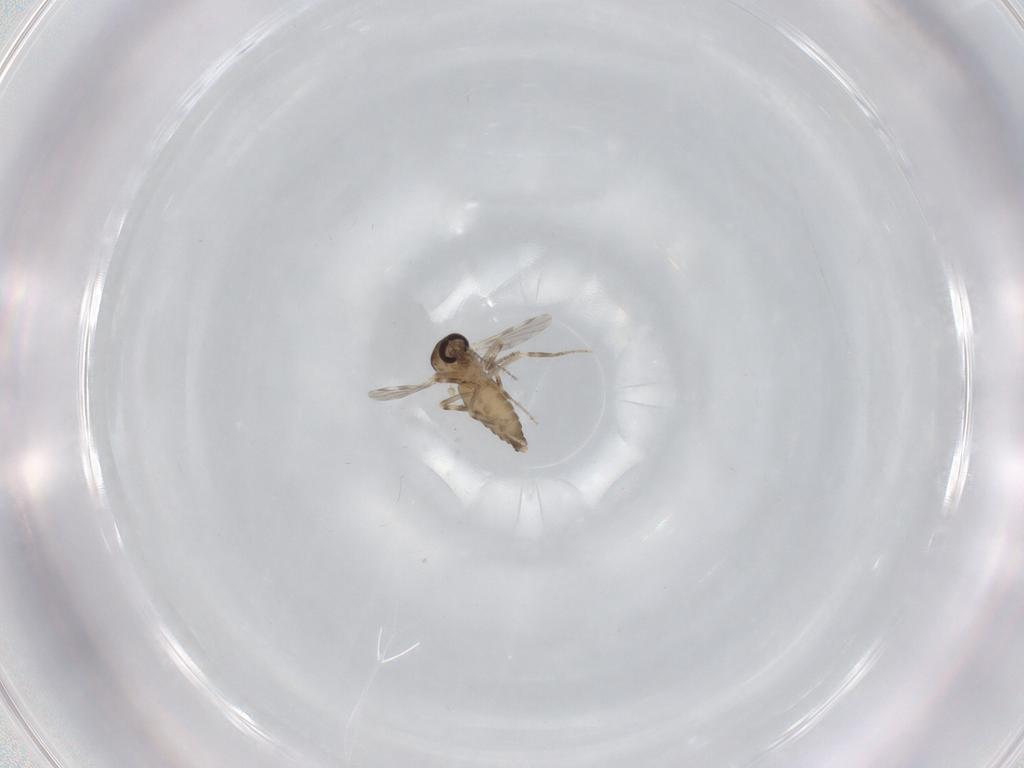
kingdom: Animalia
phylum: Arthropoda
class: Insecta
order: Diptera
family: Ceratopogonidae
